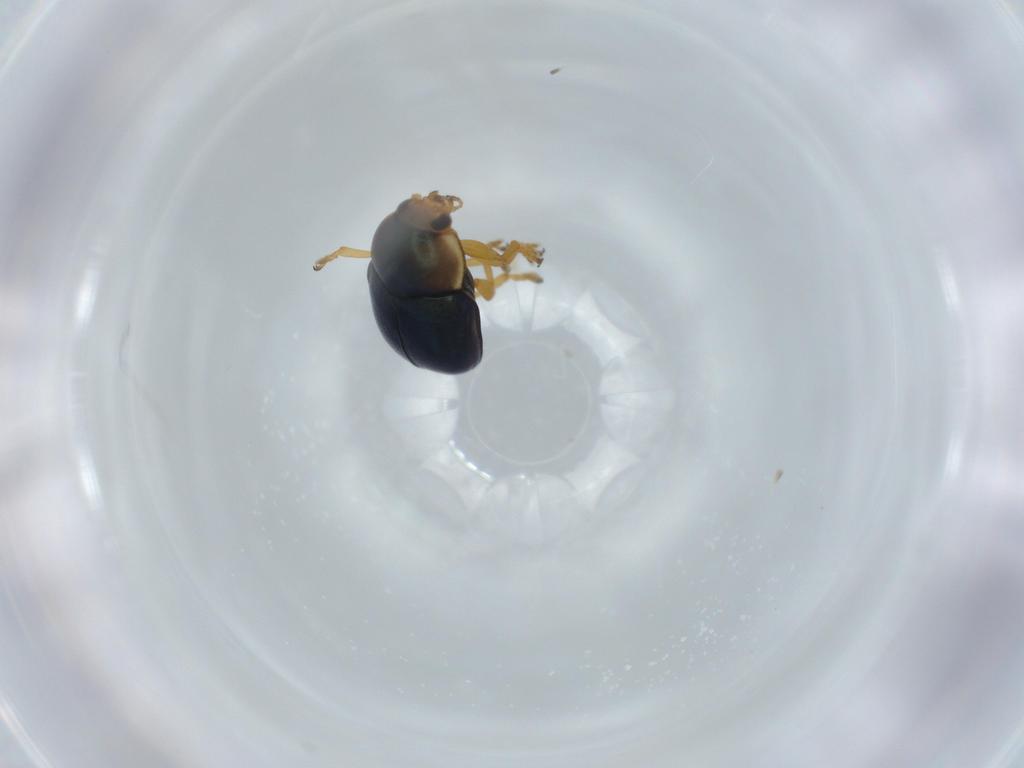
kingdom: Animalia
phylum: Arthropoda
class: Insecta
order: Coleoptera
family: Chrysomelidae
